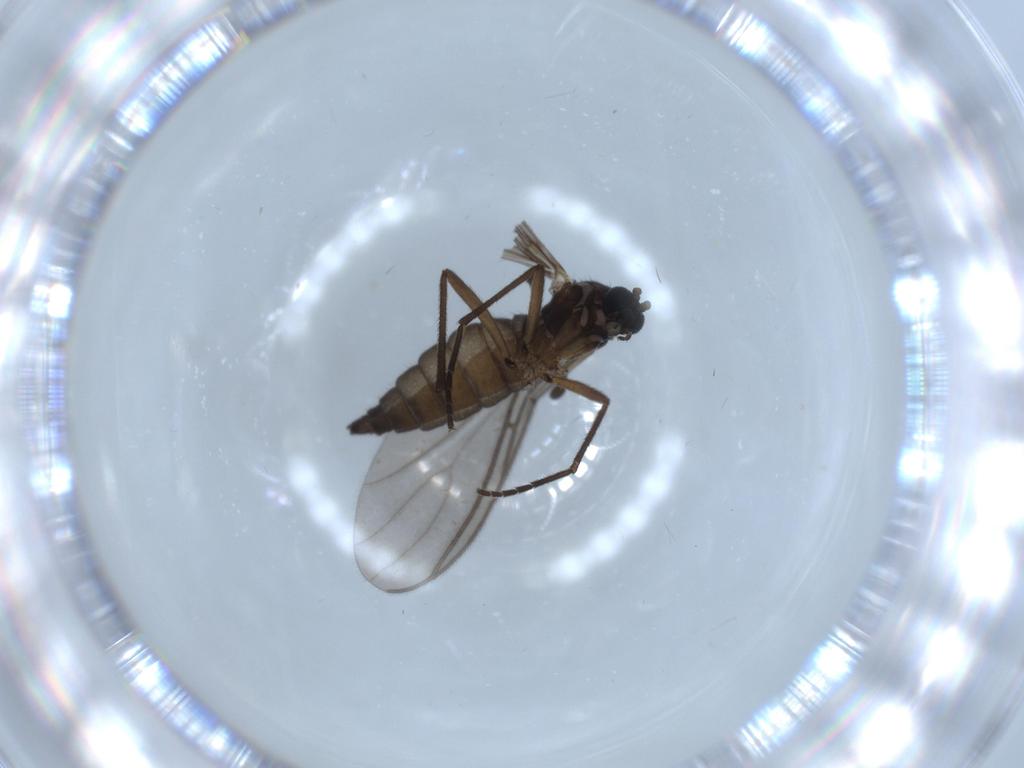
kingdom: Animalia
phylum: Arthropoda
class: Insecta
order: Diptera
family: Sciaridae
